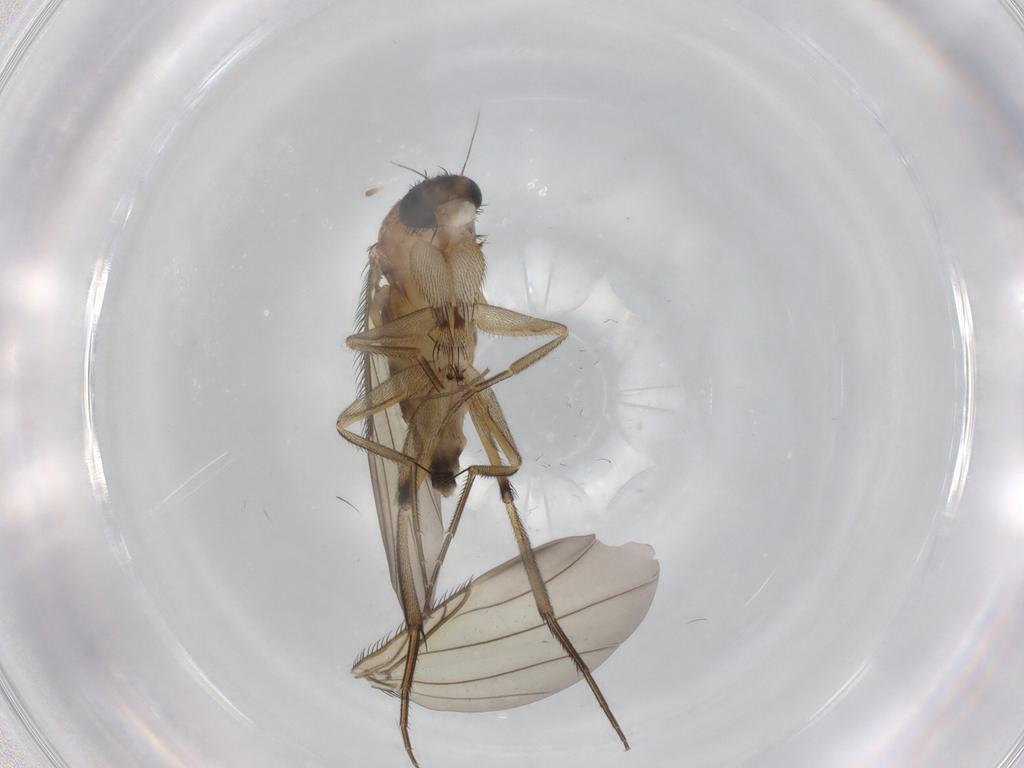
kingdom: Animalia
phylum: Arthropoda
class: Insecta
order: Diptera
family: Phoridae
